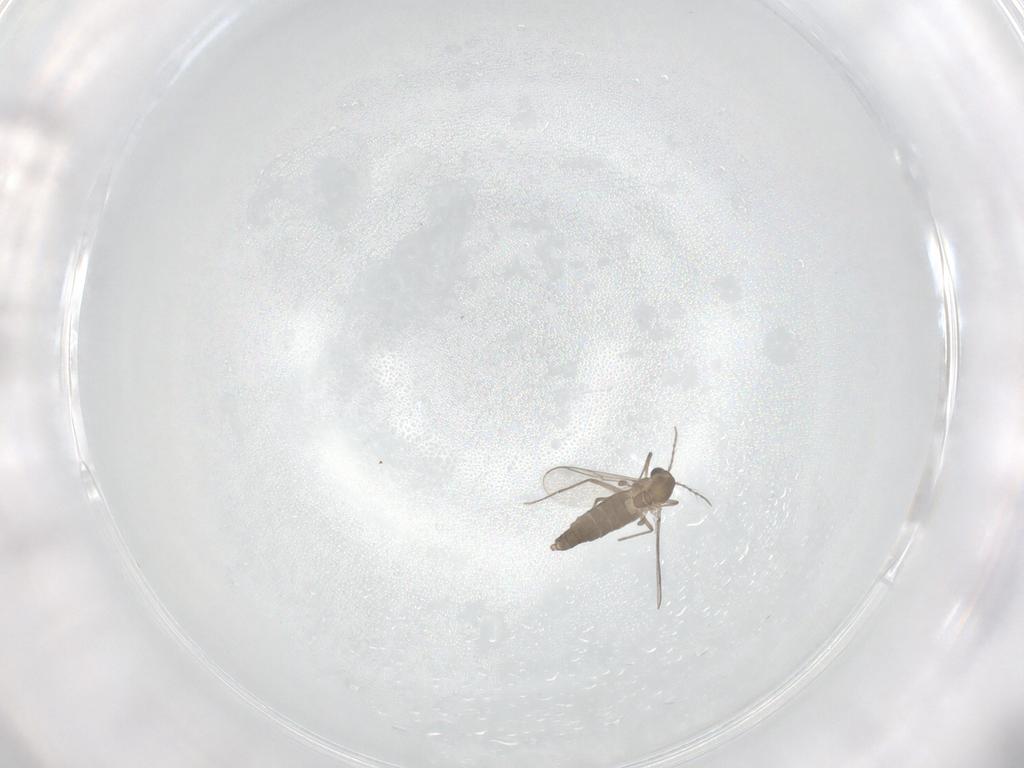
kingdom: Animalia
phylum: Arthropoda
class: Insecta
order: Diptera
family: Chironomidae
